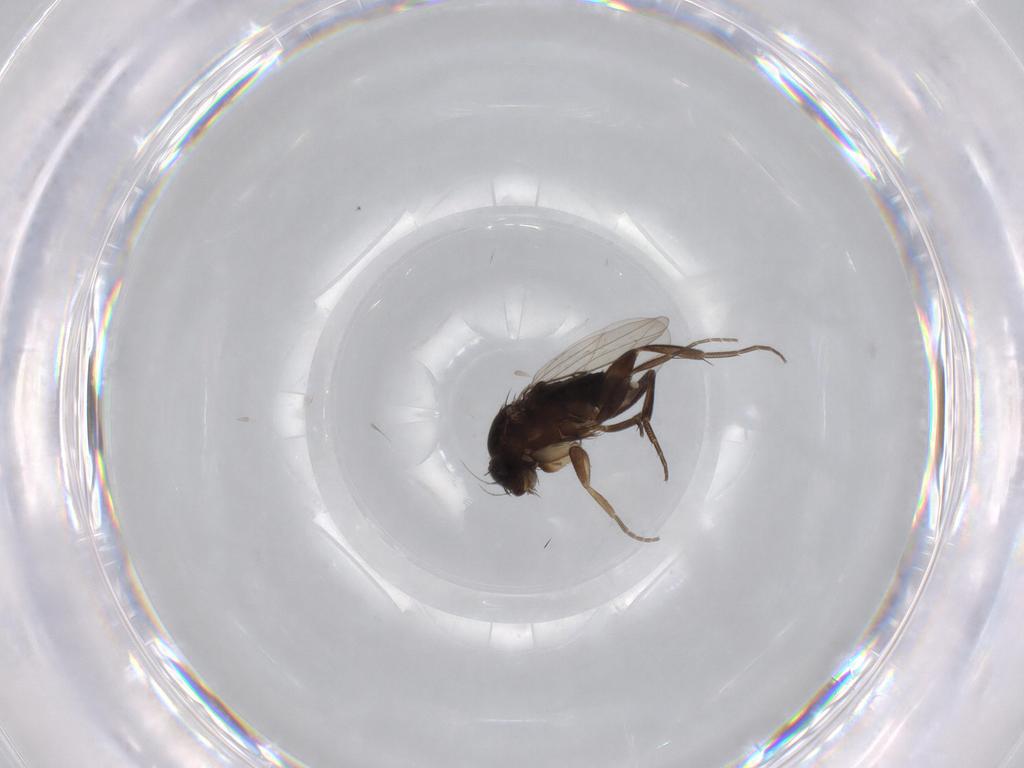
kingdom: Animalia
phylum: Arthropoda
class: Insecta
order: Diptera
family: Phoridae
